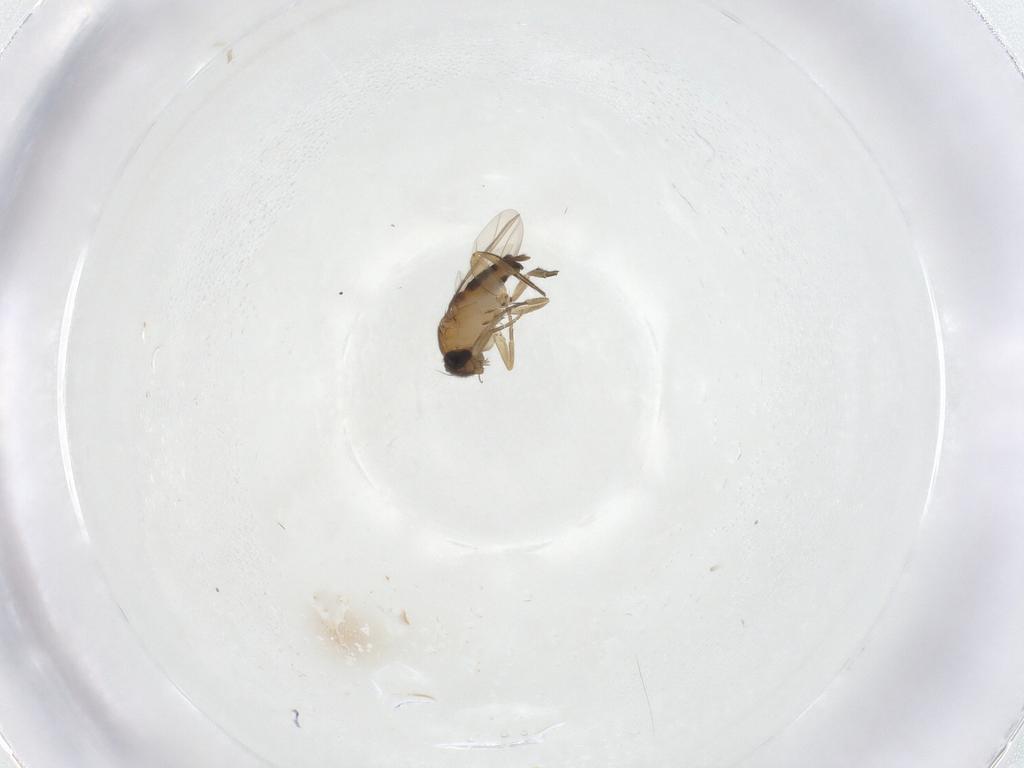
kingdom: Animalia
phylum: Arthropoda
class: Insecta
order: Diptera
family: Phoridae
